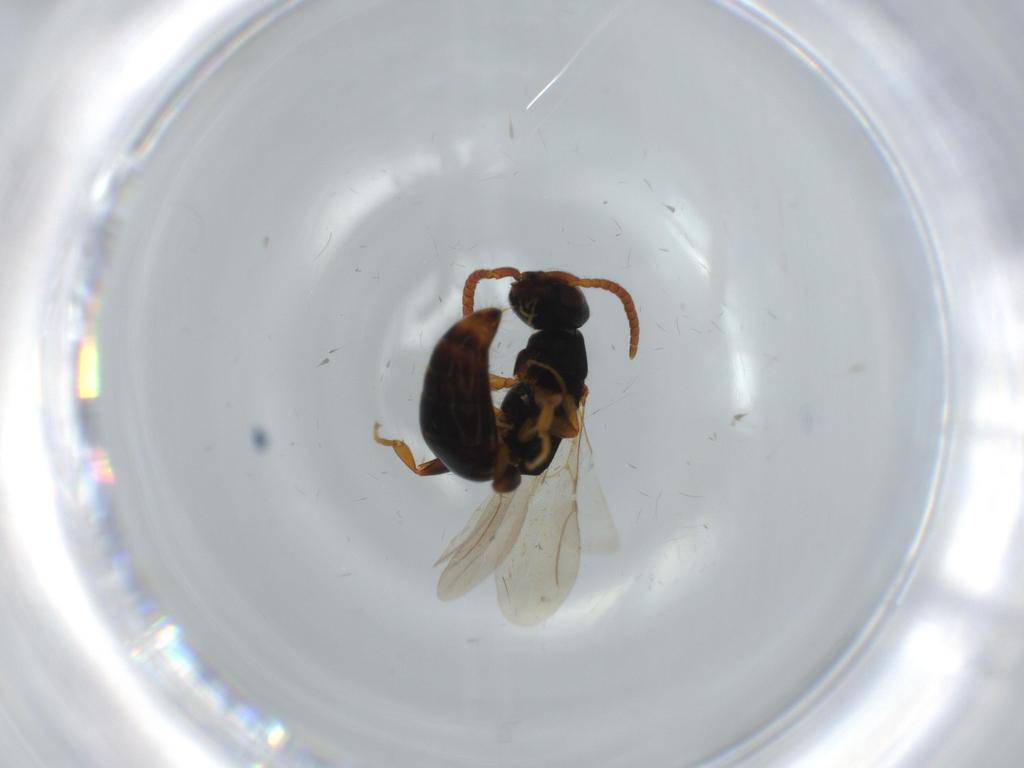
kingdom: Animalia
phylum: Arthropoda
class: Insecta
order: Hymenoptera
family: Bethylidae
